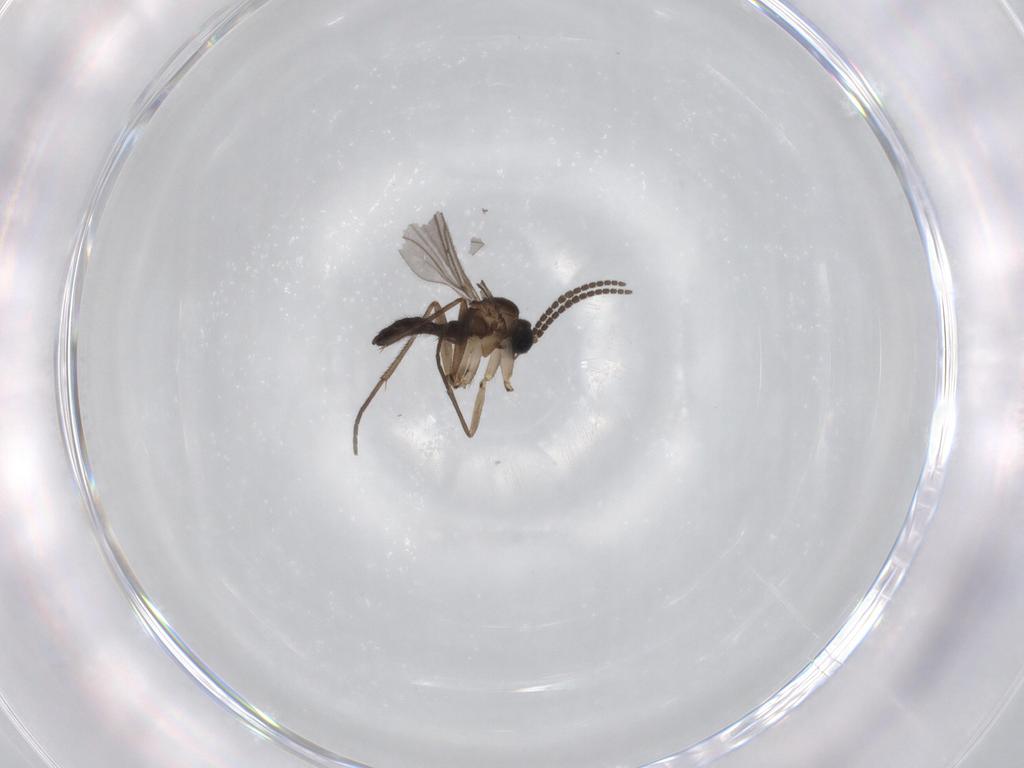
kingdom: Animalia
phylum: Arthropoda
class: Insecta
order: Diptera
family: Sciaridae
